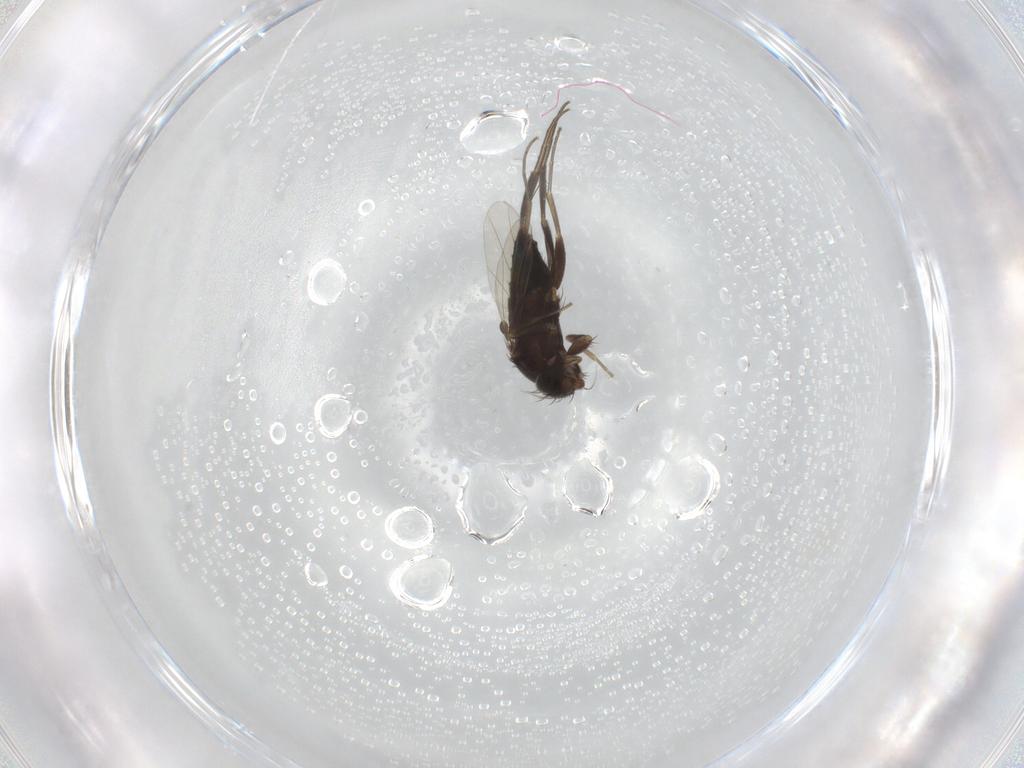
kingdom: Animalia
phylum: Arthropoda
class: Insecta
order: Diptera
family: Phoridae
